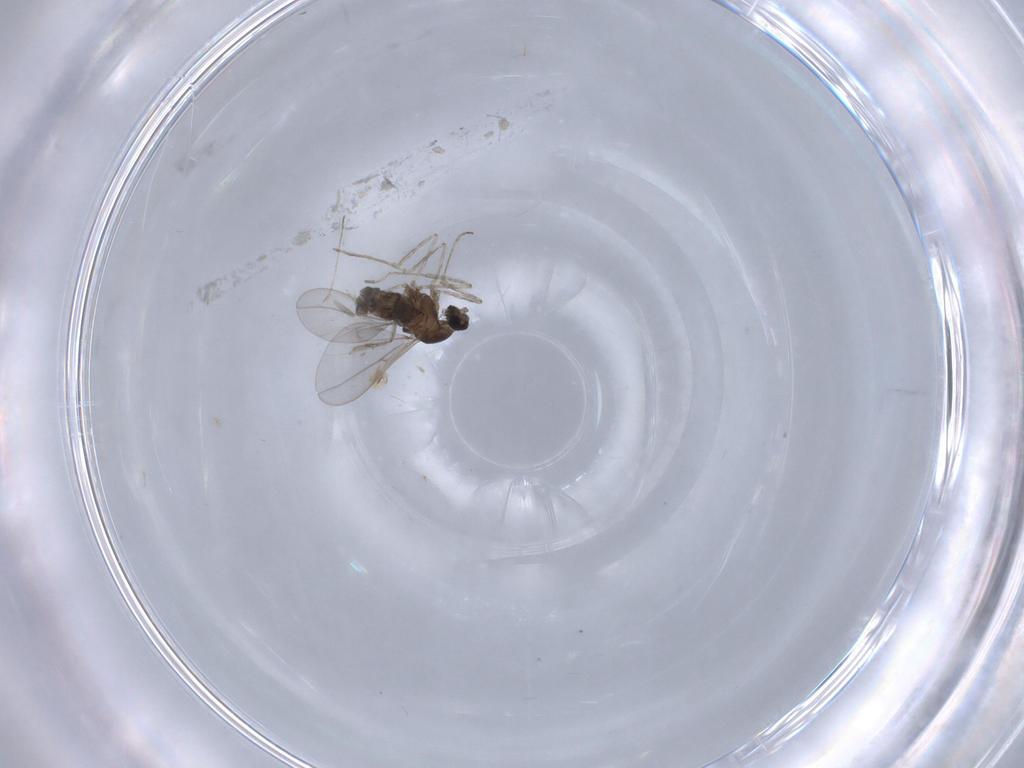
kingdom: Animalia
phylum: Arthropoda
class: Insecta
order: Diptera
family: Cecidomyiidae
